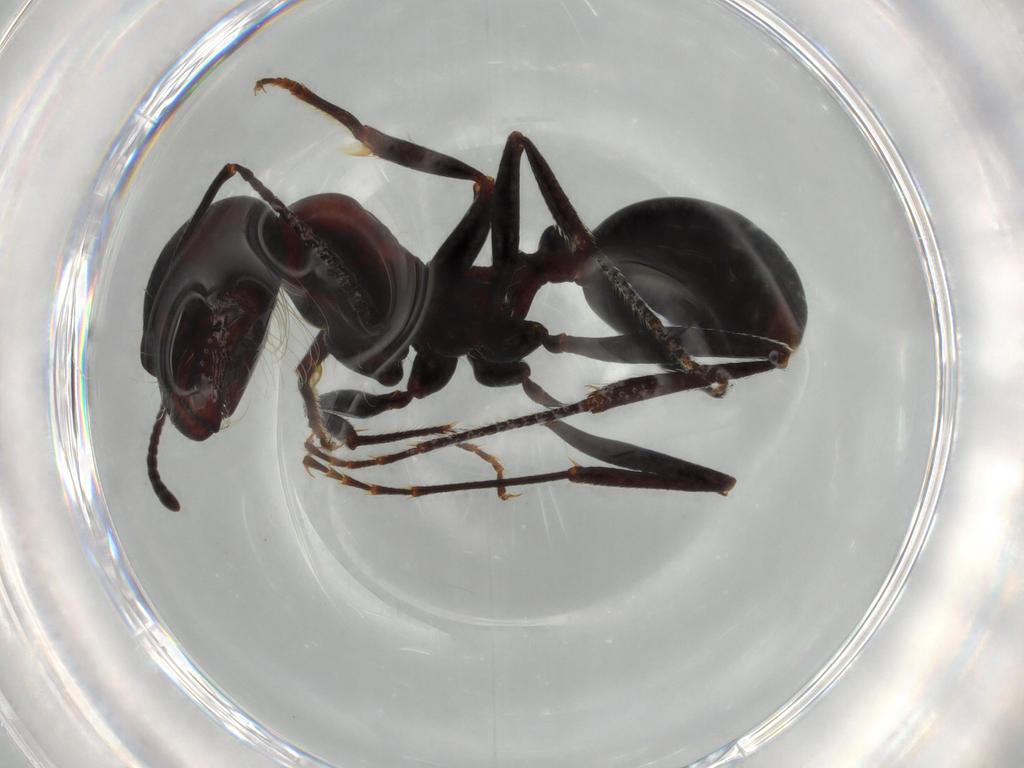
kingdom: Animalia
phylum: Arthropoda
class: Insecta
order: Hymenoptera
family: Formicidae
